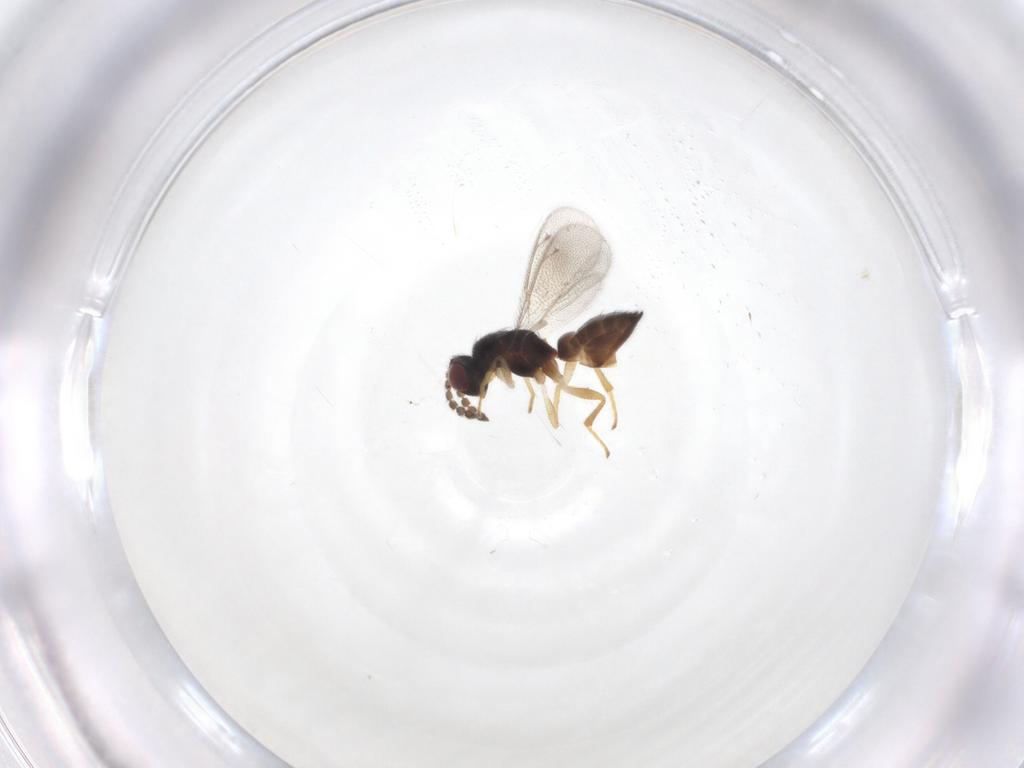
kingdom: Animalia
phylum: Arthropoda
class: Insecta
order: Hymenoptera
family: Eulophidae
